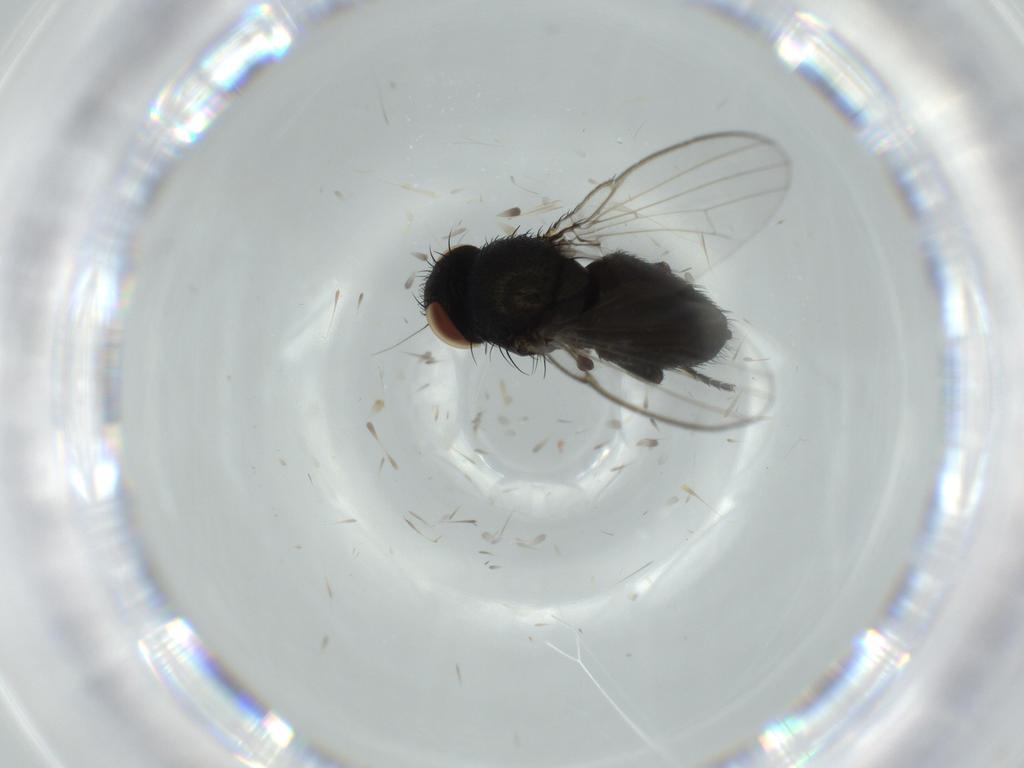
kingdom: Animalia
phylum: Arthropoda
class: Insecta
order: Diptera
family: Milichiidae
